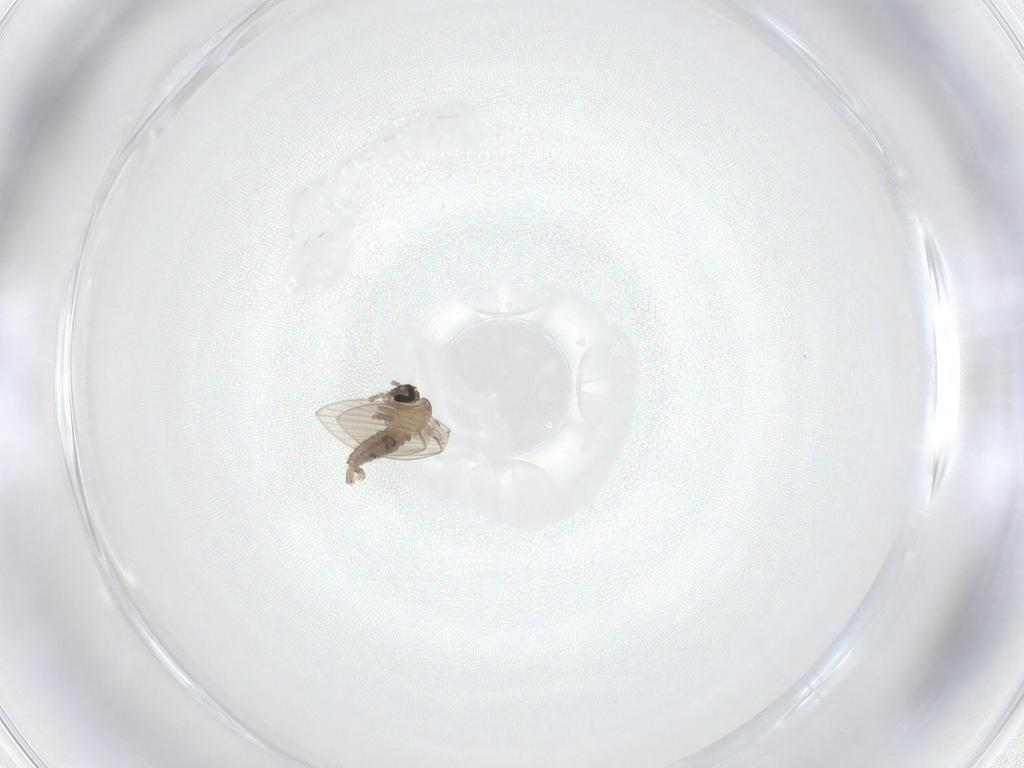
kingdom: Animalia
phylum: Arthropoda
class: Insecta
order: Diptera
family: Psychodidae
